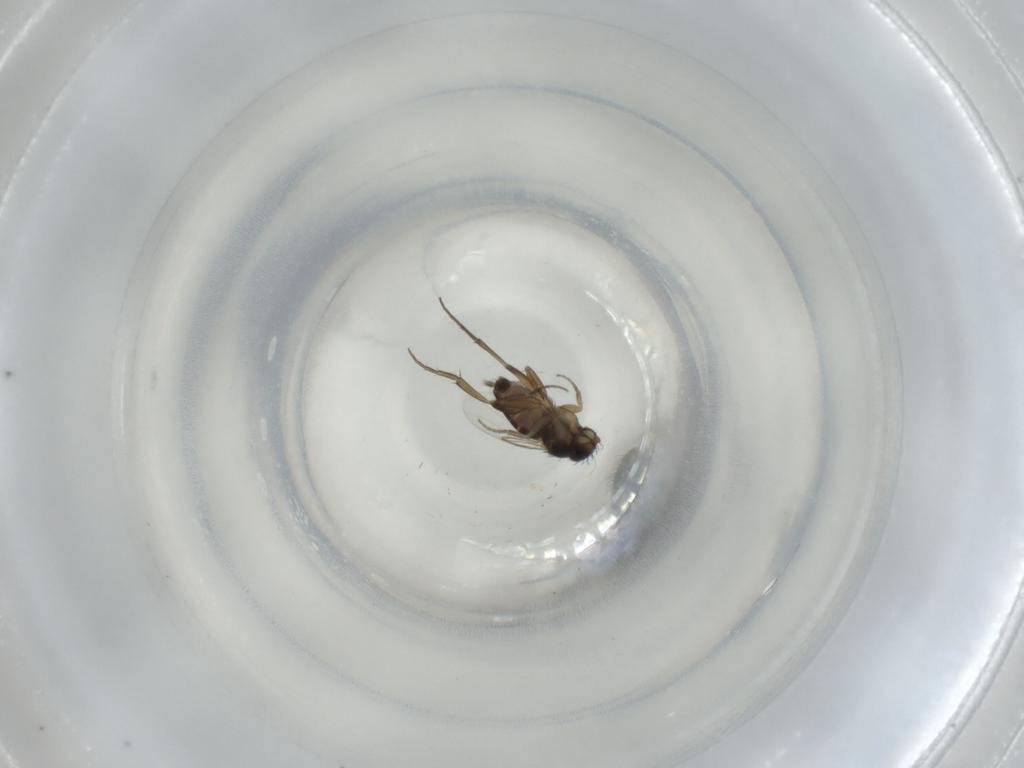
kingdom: Animalia
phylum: Arthropoda
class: Insecta
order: Diptera
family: Phoridae
